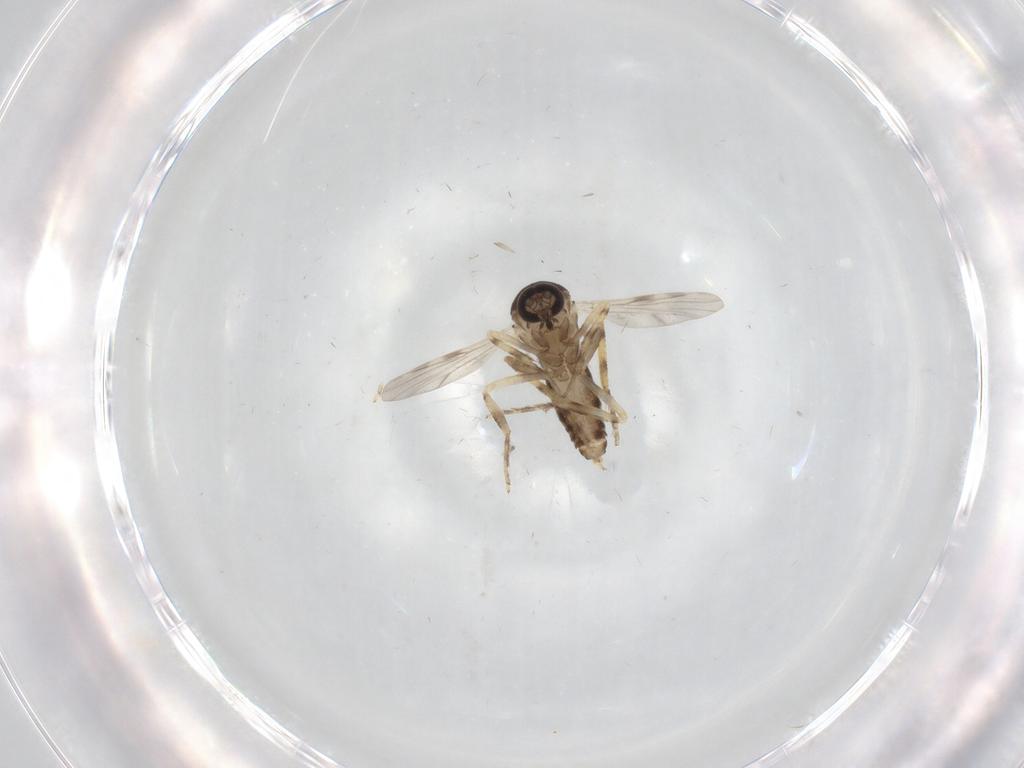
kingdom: Animalia
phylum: Arthropoda
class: Insecta
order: Diptera
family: Ceratopogonidae
